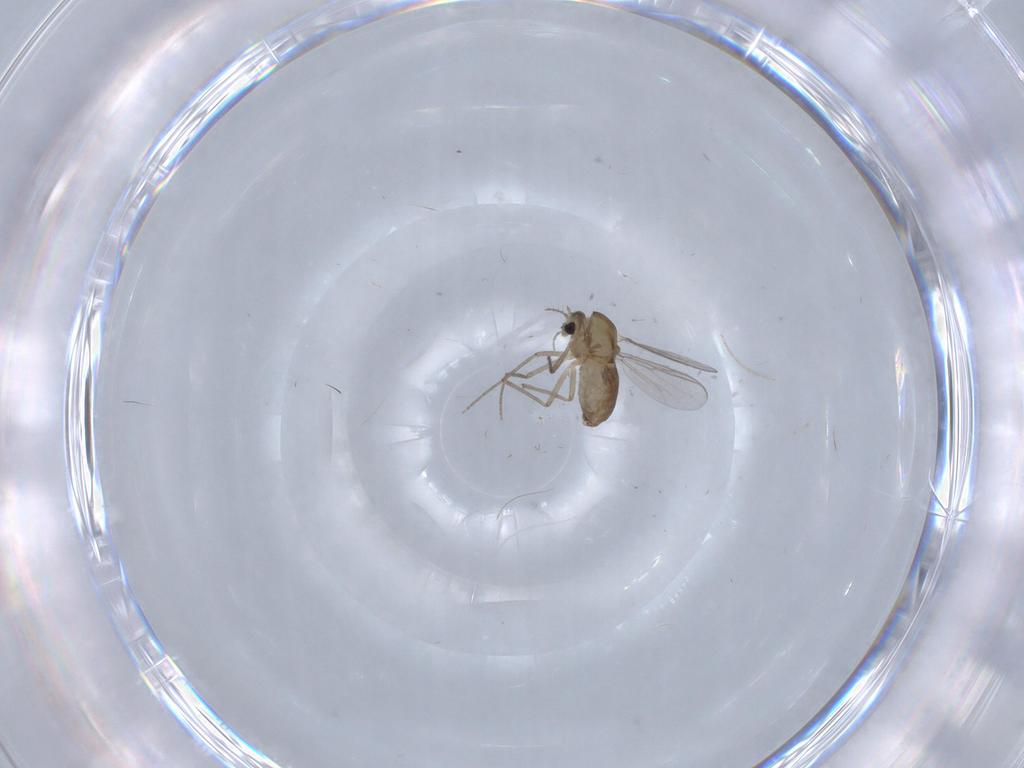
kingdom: Animalia
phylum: Arthropoda
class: Insecta
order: Diptera
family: Chironomidae
